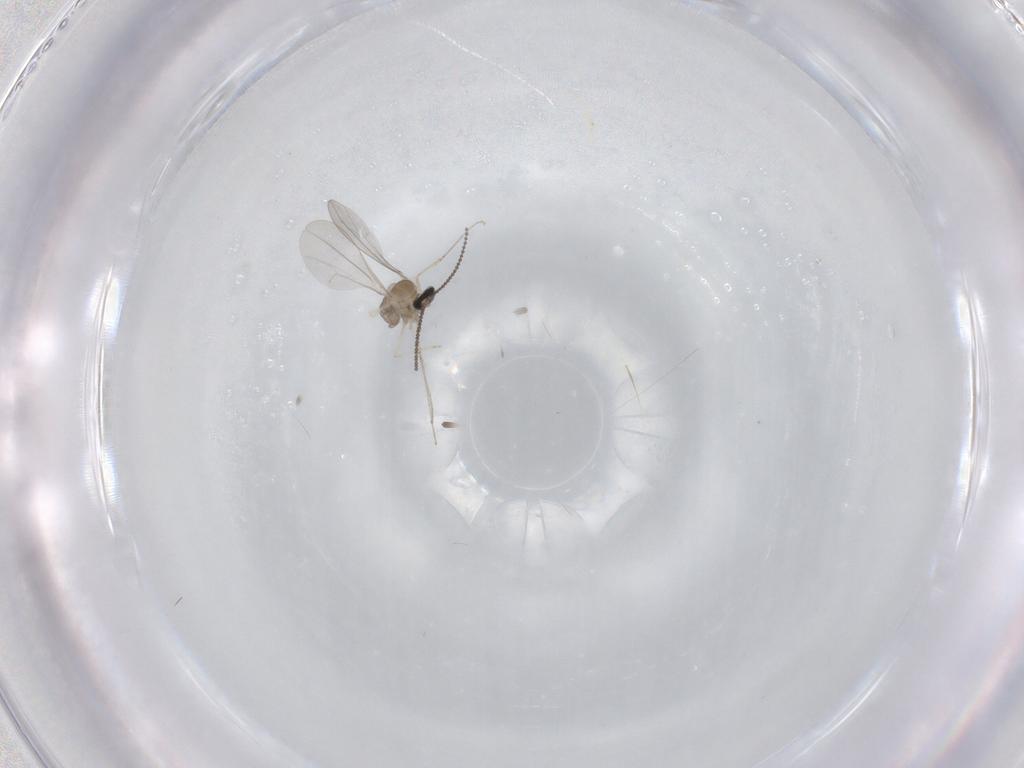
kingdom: Animalia
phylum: Arthropoda
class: Insecta
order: Diptera
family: Cecidomyiidae
